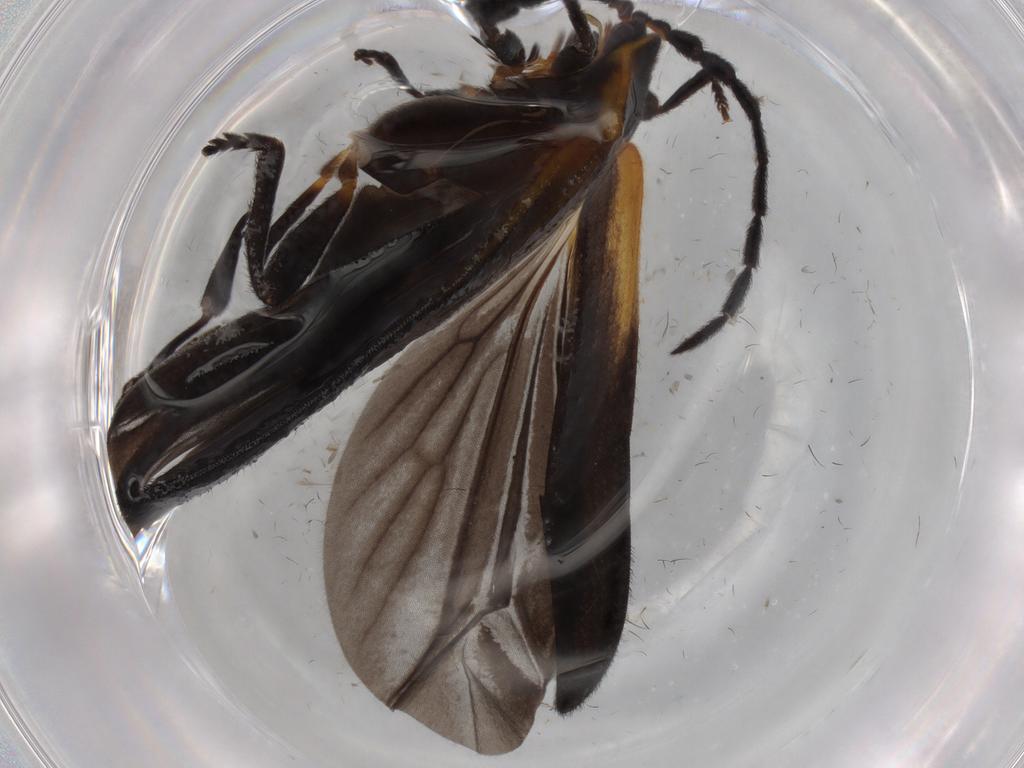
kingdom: Animalia
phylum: Arthropoda
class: Insecta
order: Coleoptera
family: Lycidae
